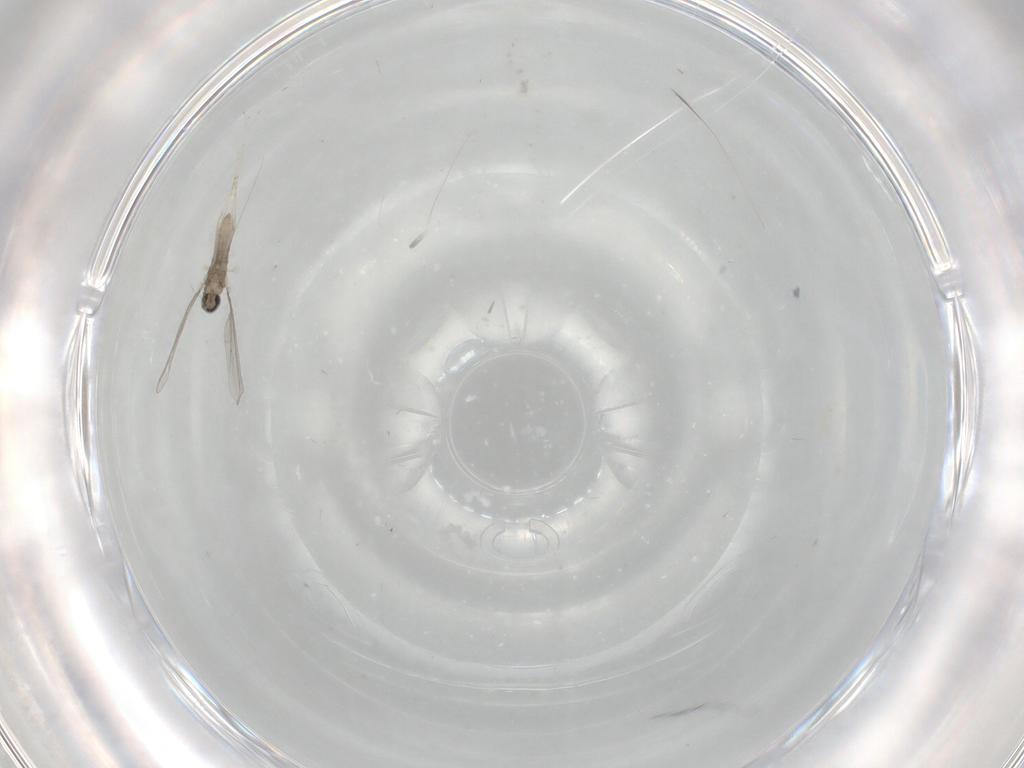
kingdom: Animalia
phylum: Arthropoda
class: Insecta
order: Diptera
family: Cecidomyiidae
